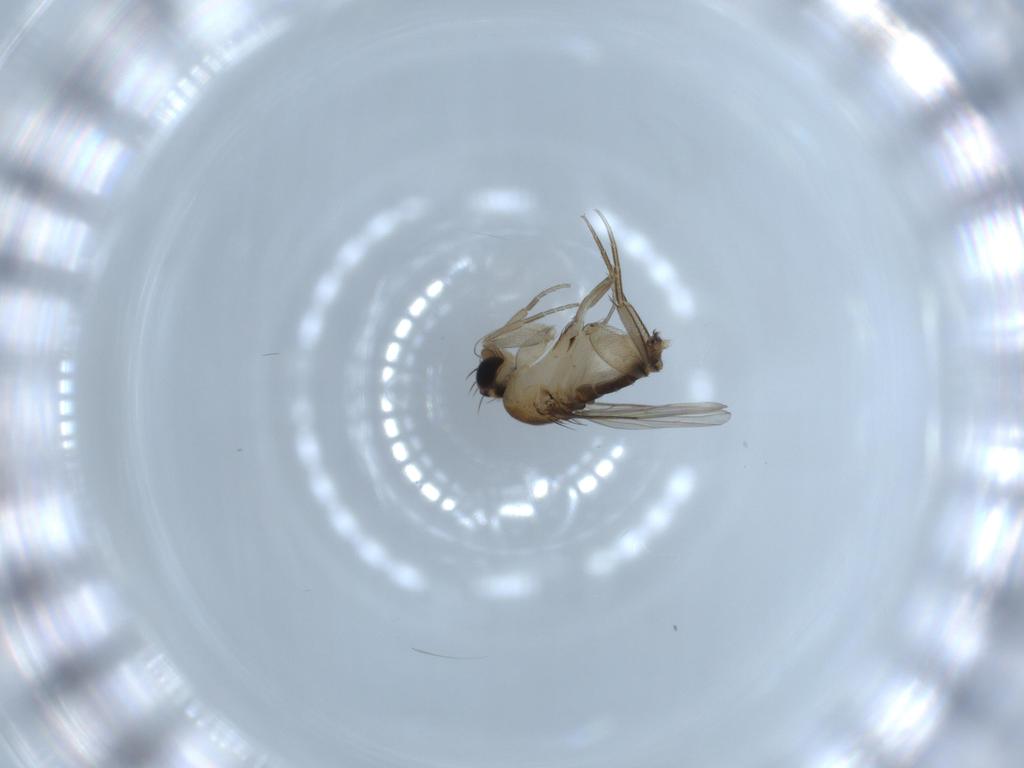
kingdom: Animalia
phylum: Arthropoda
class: Insecta
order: Diptera
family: Phoridae
